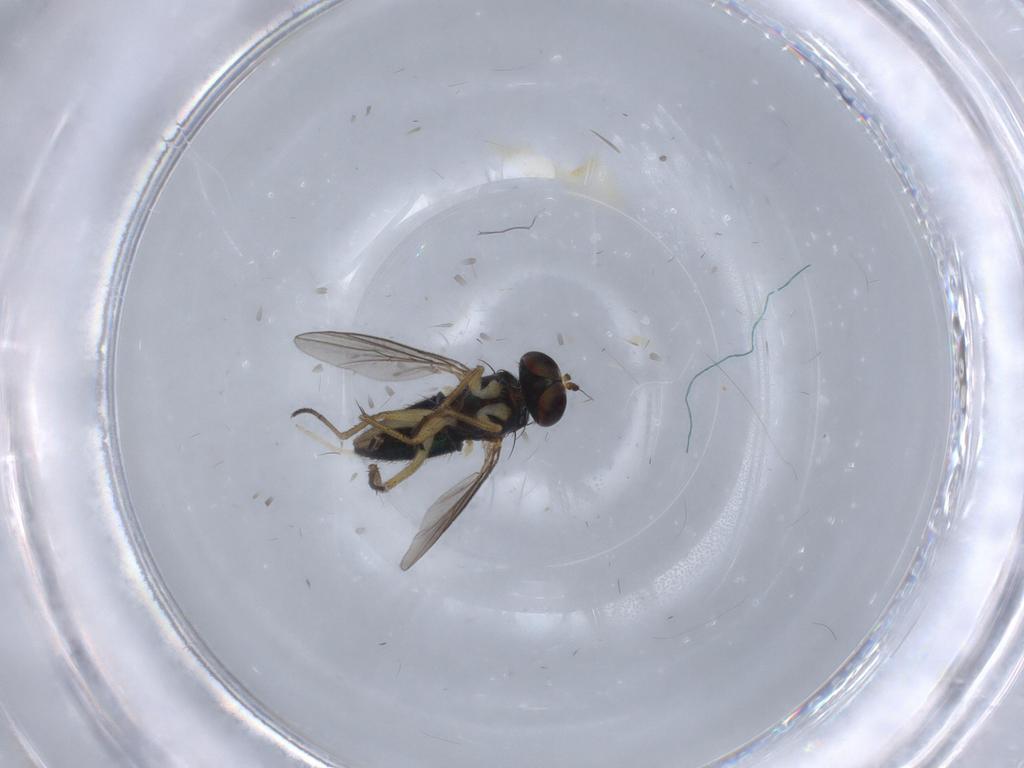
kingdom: Animalia
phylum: Arthropoda
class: Insecta
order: Diptera
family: Chironomidae
